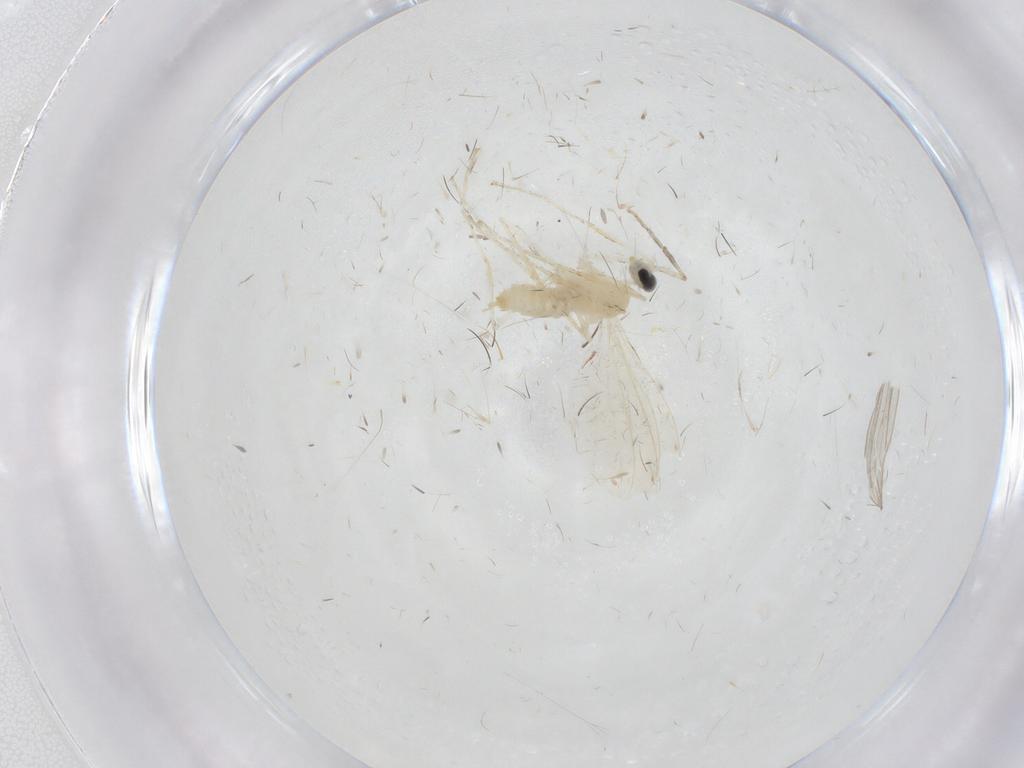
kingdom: Animalia
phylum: Arthropoda
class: Insecta
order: Diptera
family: Cecidomyiidae
